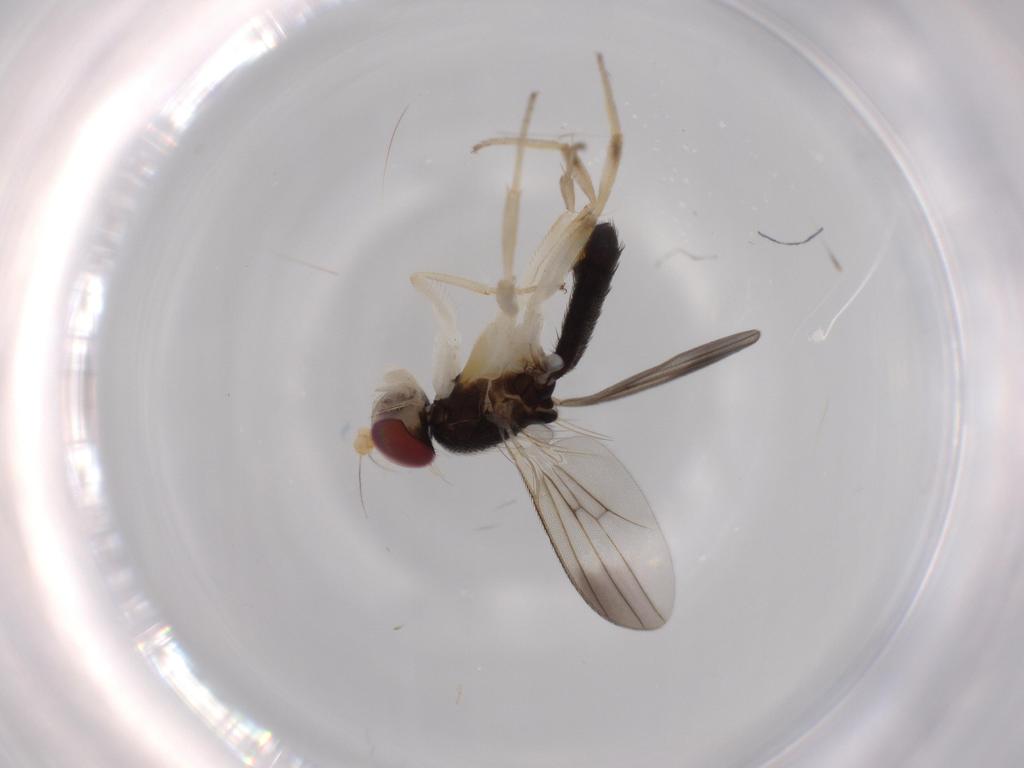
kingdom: Animalia
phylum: Arthropoda
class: Insecta
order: Diptera
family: Clusiidae
